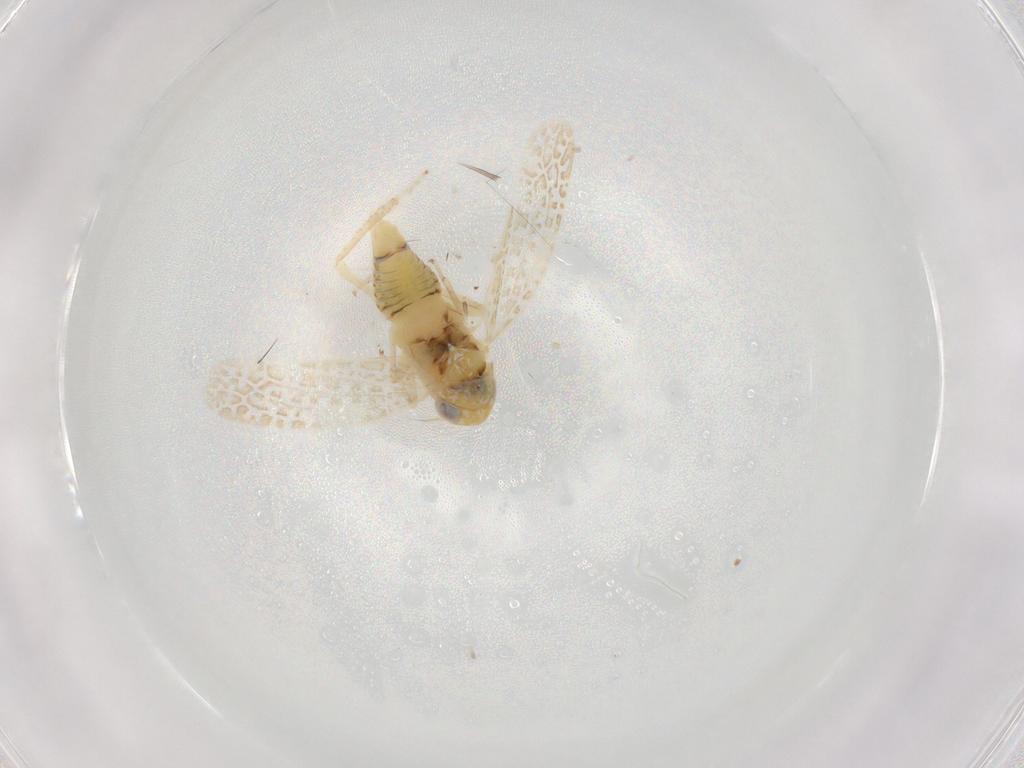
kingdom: Animalia
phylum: Arthropoda
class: Insecta
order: Hemiptera
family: Cicadellidae
